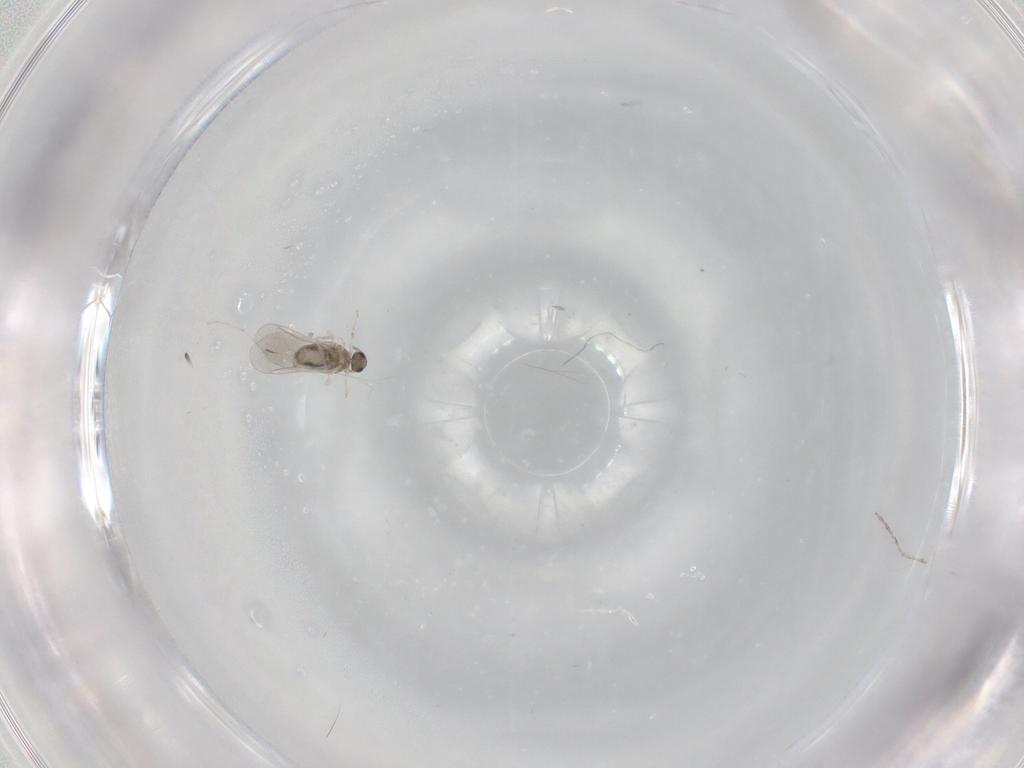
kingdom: Animalia
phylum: Arthropoda
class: Insecta
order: Diptera
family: Cecidomyiidae
